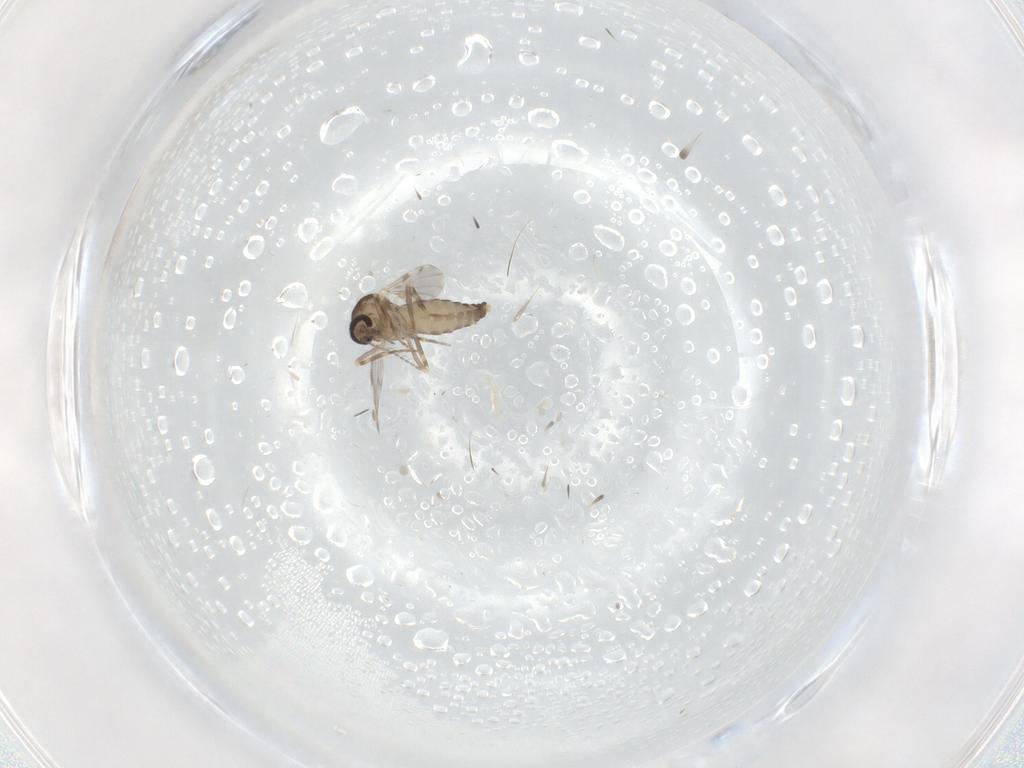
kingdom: Animalia
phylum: Arthropoda
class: Insecta
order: Diptera
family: Ceratopogonidae
